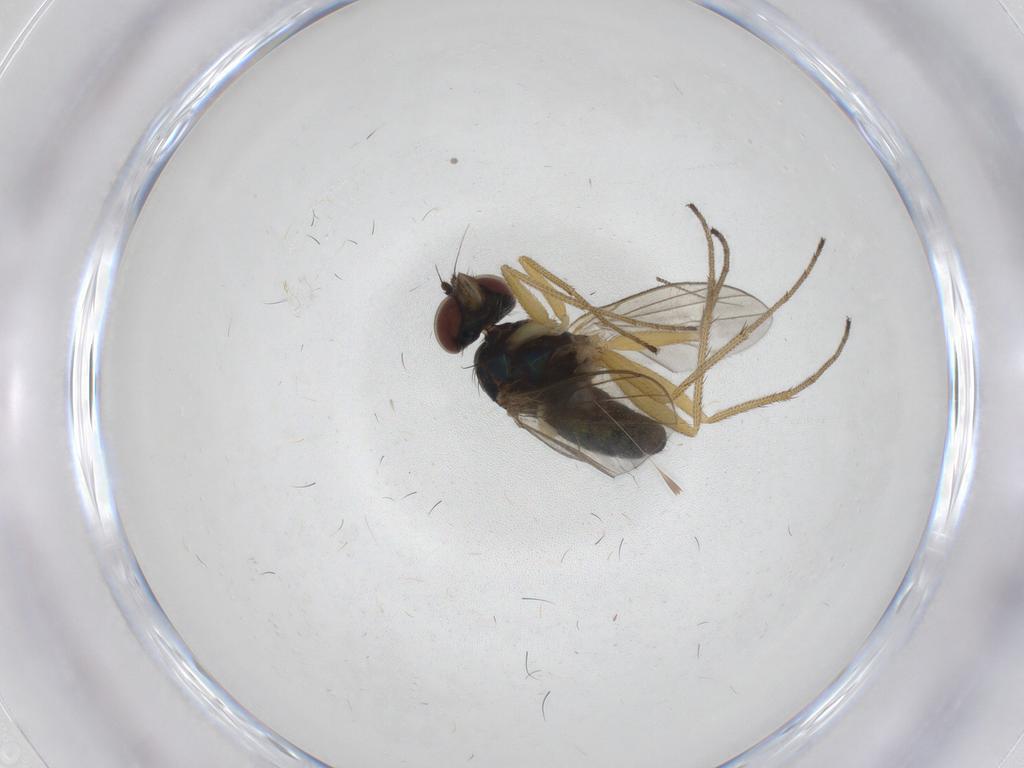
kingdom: Animalia
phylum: Arthropoda
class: Insecta
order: Diptera
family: Dolichopodidae
